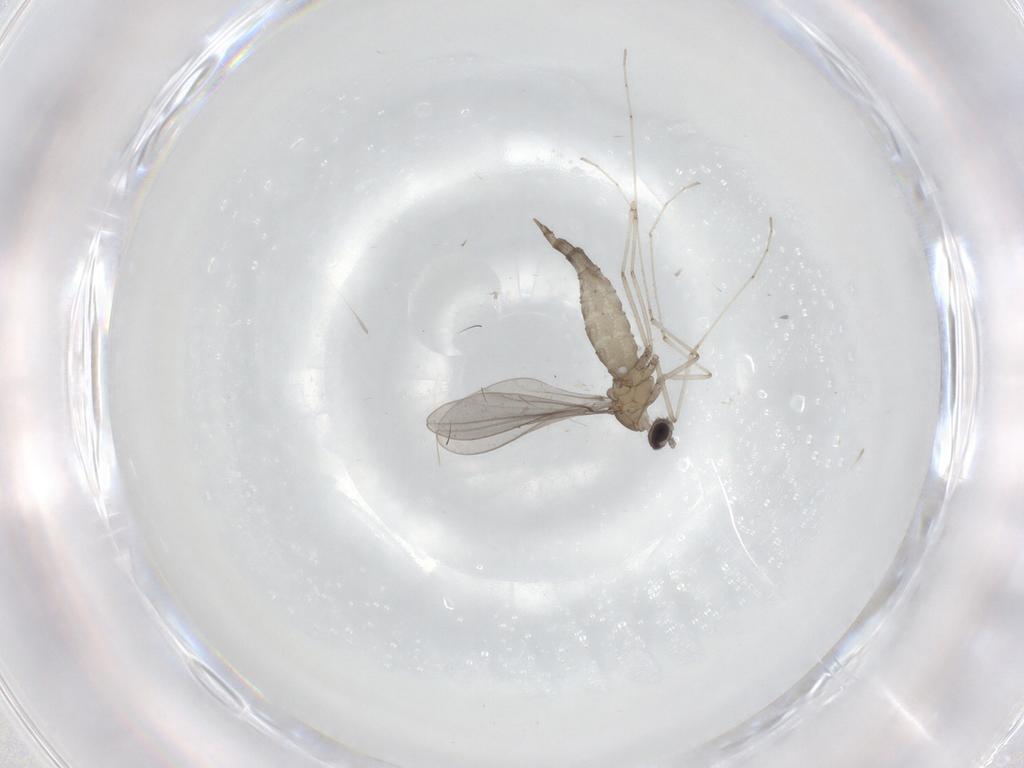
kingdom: Animalia
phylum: Arthropoda
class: Insecta
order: Diptera
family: Cecidomyiidae
